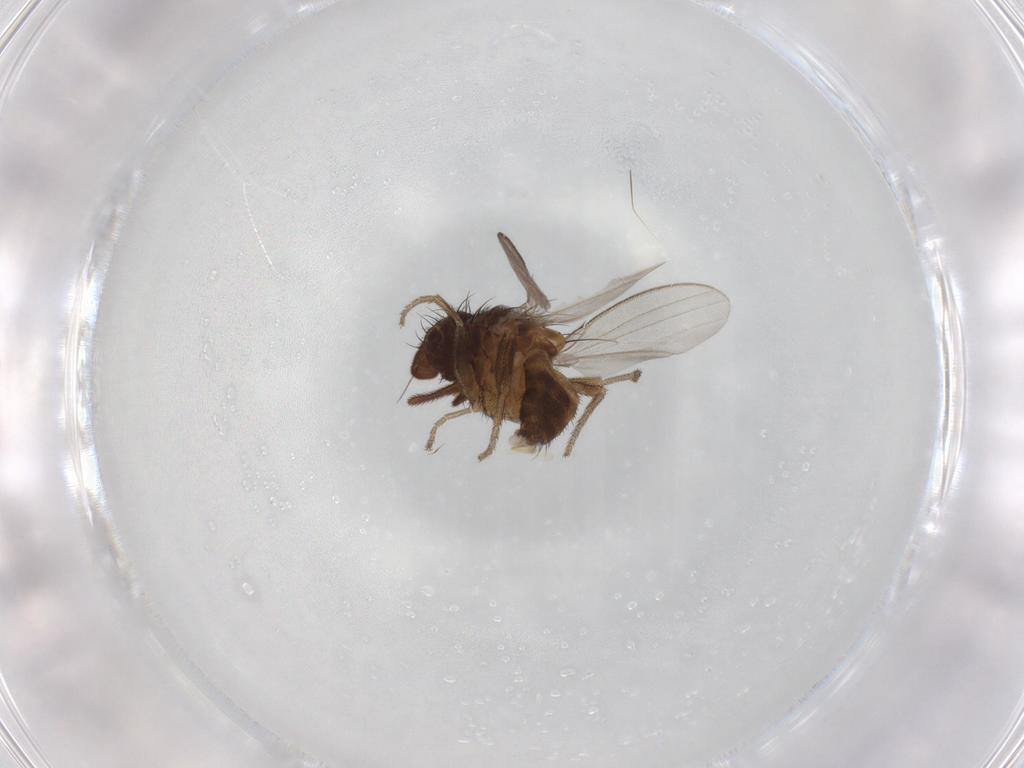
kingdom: Animalia
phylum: Arthropoda
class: Insecta
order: Diptera
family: Milichiidae
